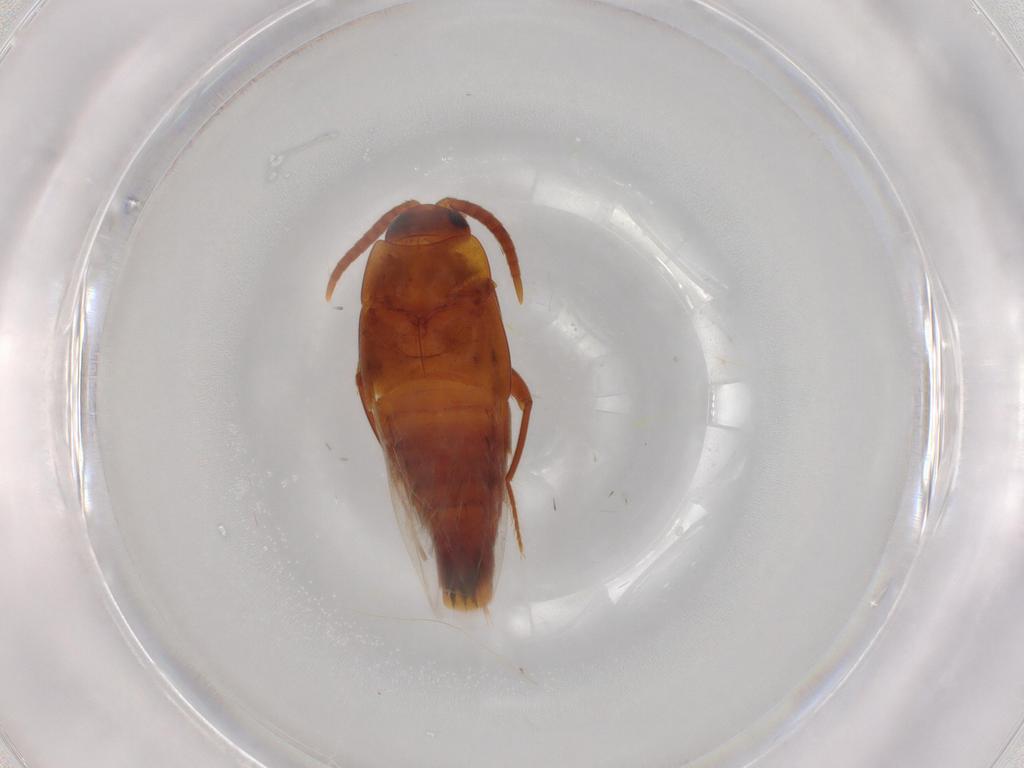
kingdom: Animalia
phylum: Arthropoda
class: Insecta
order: Coleoptera
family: Staphylinidae
